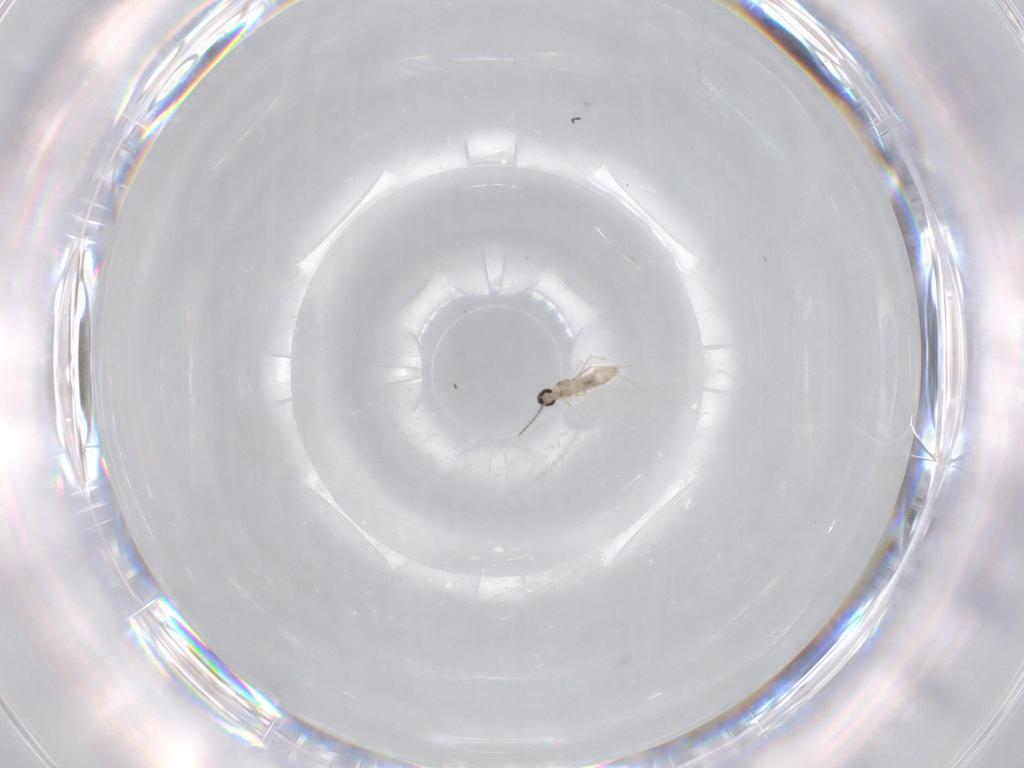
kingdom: Animalia
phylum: Arthropoda
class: Insecta
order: Diptera
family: Cecidomyiidae
